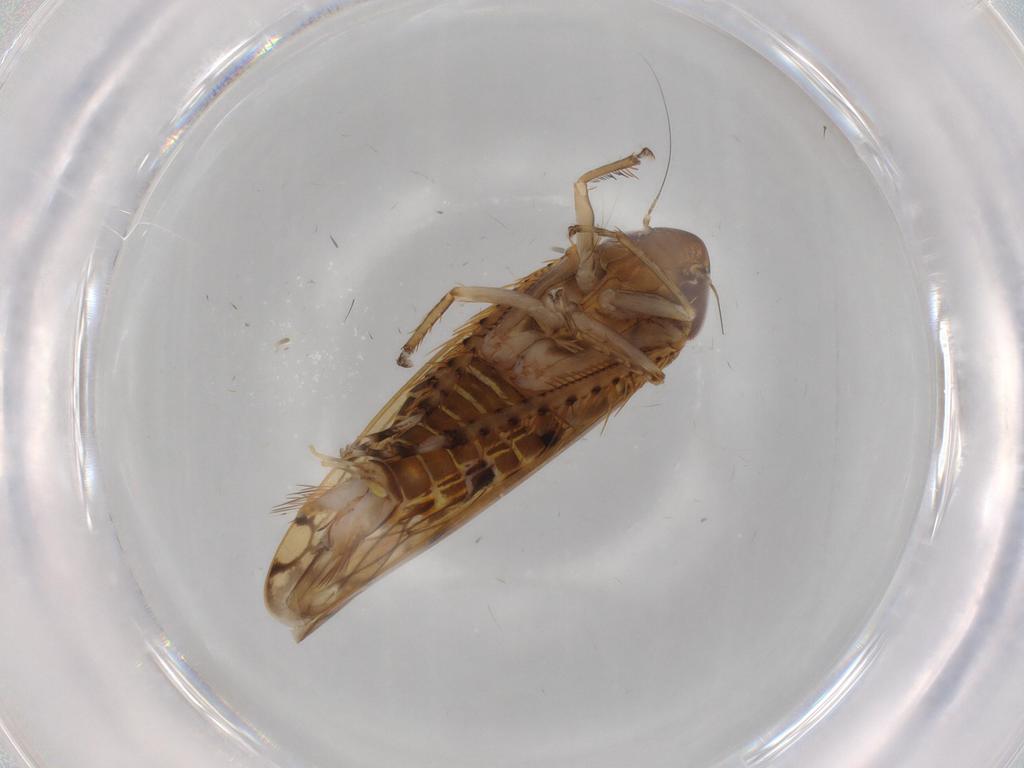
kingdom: Animalia
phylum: Arthropoda
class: Insecta
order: Hemiptera
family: Cicadellidae
